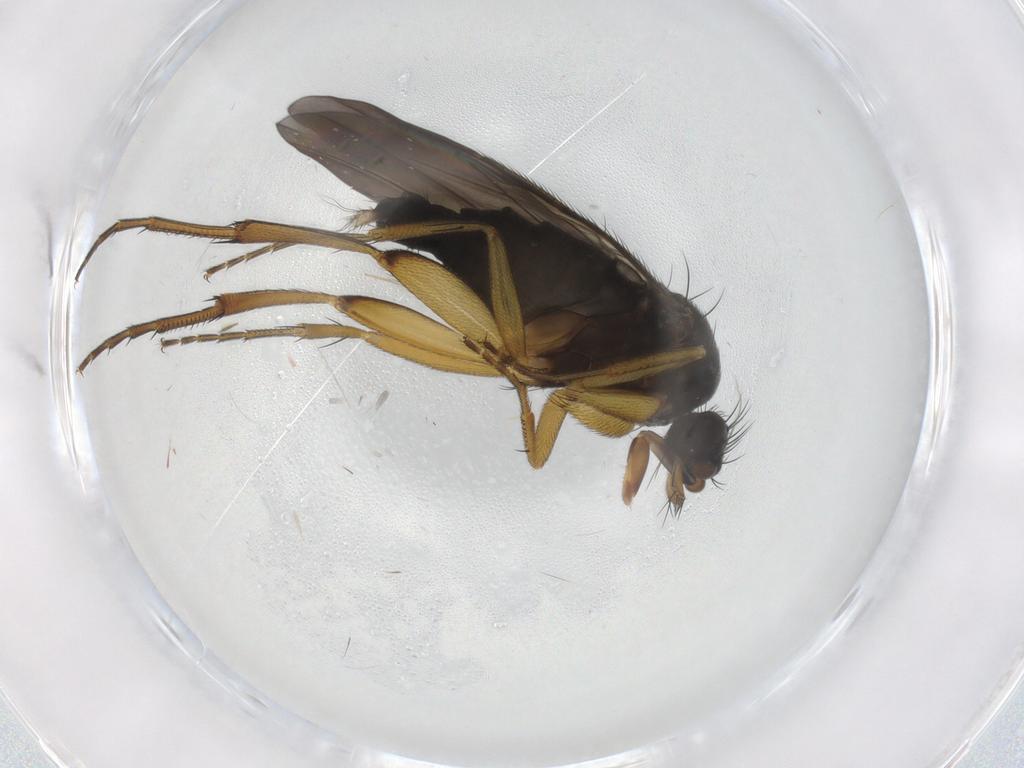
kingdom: Animalia
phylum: Arthropoda
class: Insecta
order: Diptera
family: Phoridae
